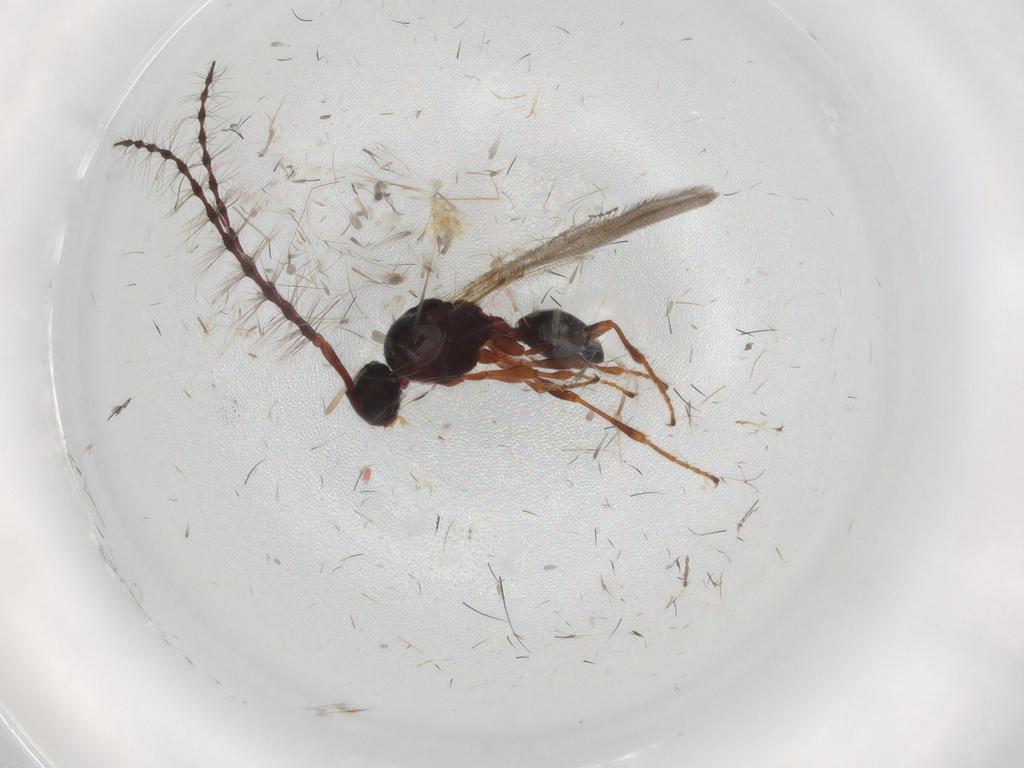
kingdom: Animalia
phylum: Arthropoda
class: Insecta
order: Hymenoptera
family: Diapriidae
